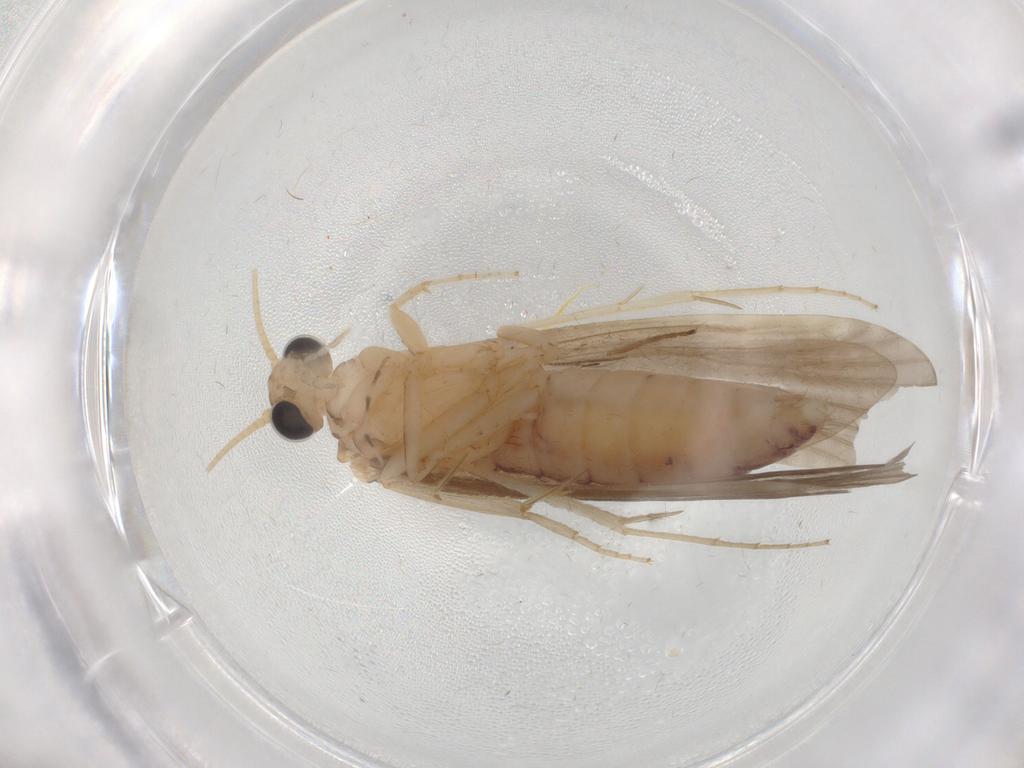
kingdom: Animalia
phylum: Arthropoda
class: Insecta
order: Trichoptera
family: Ecnomidae
